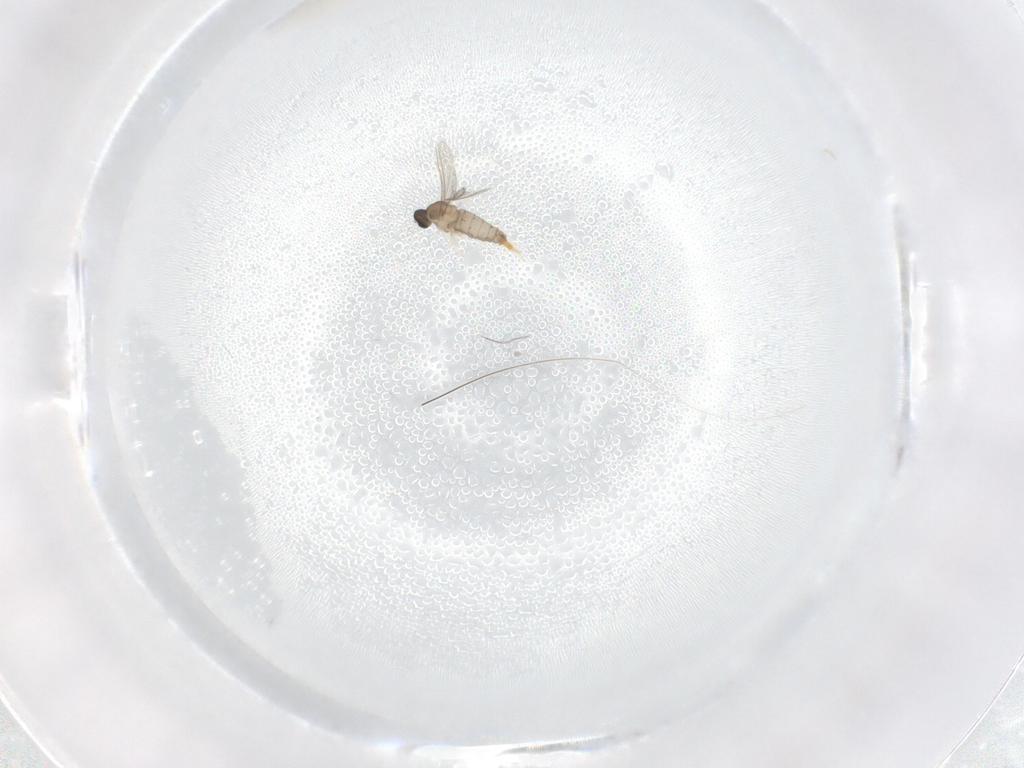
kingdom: Animalia
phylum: Arthropoda
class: Insecta
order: Diptera
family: Cecidomyiidae
